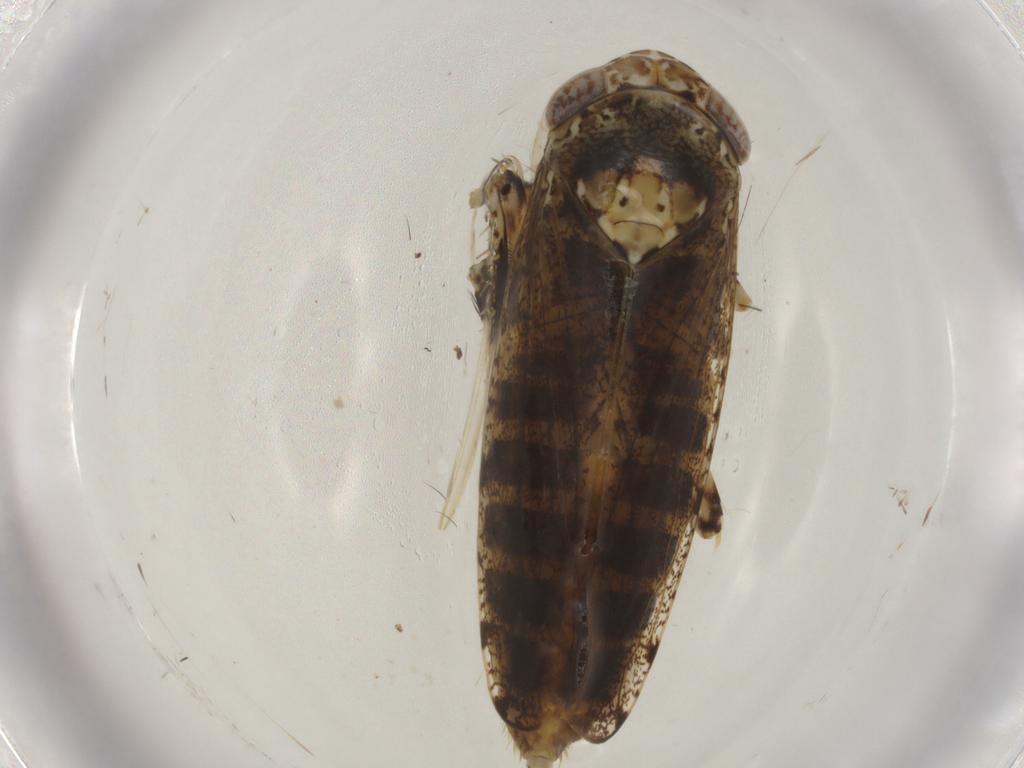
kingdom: Animalia
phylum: Arthropoda
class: Insecta
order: Hemiptera
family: Cicadellidae
